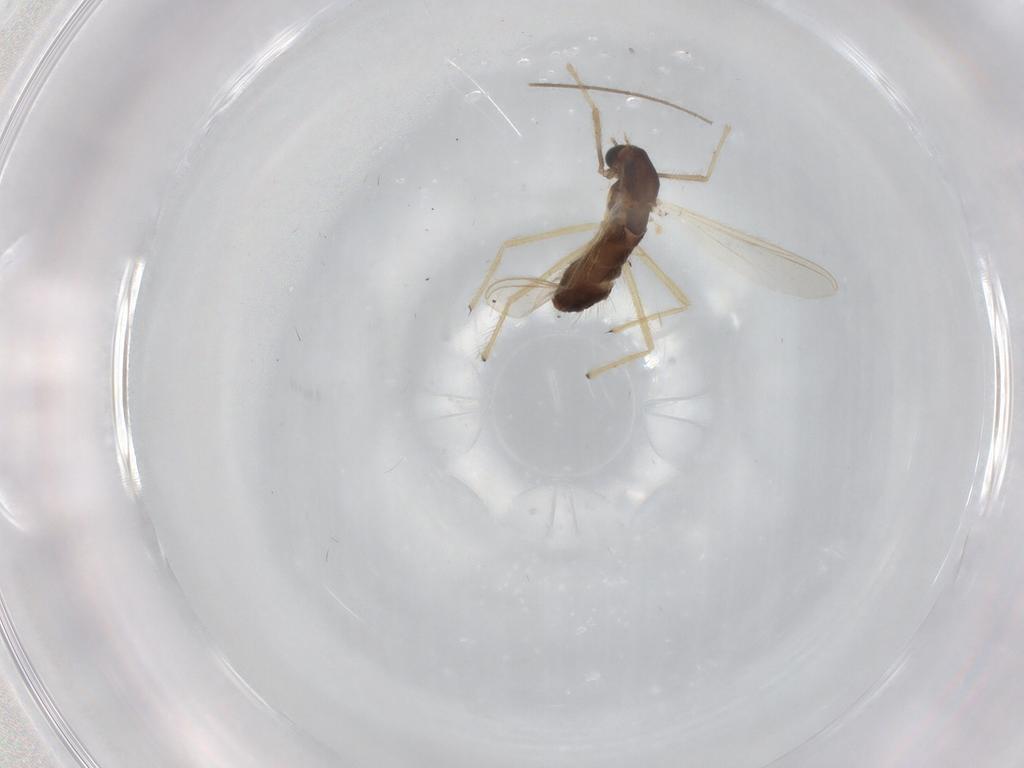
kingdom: Animalia
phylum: Arthropoda
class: Insecta
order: Diptera
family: Chironomidae
